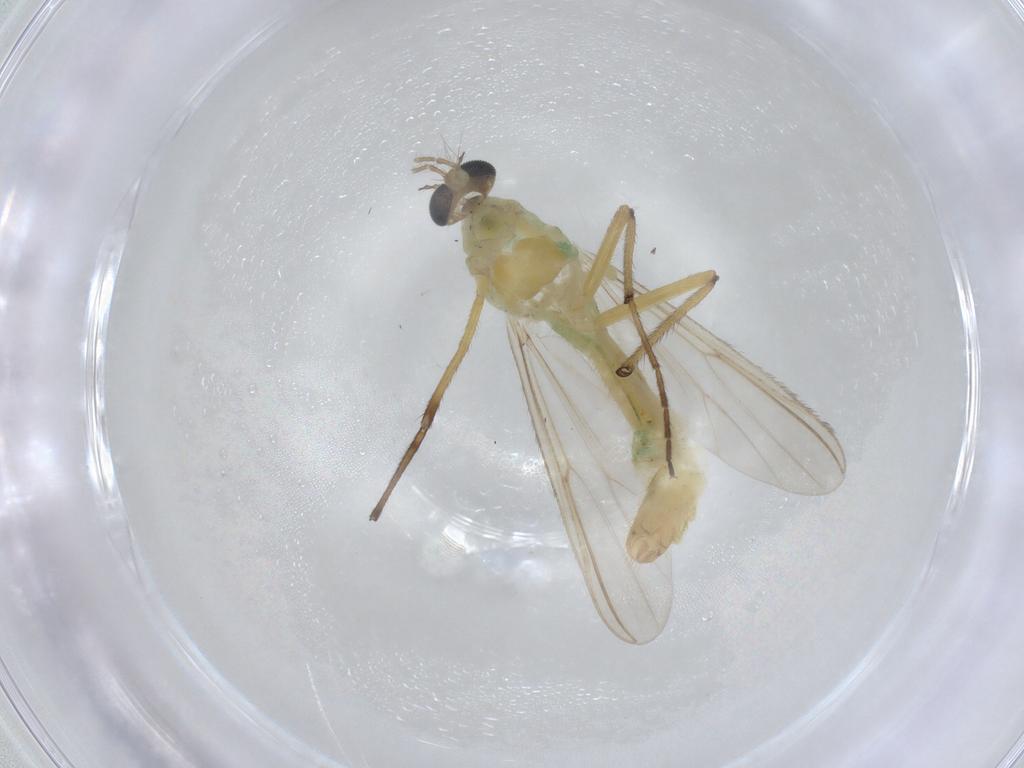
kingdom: Animalia
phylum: Arthropoda
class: Insecta
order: Diptera
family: Chironomidae
